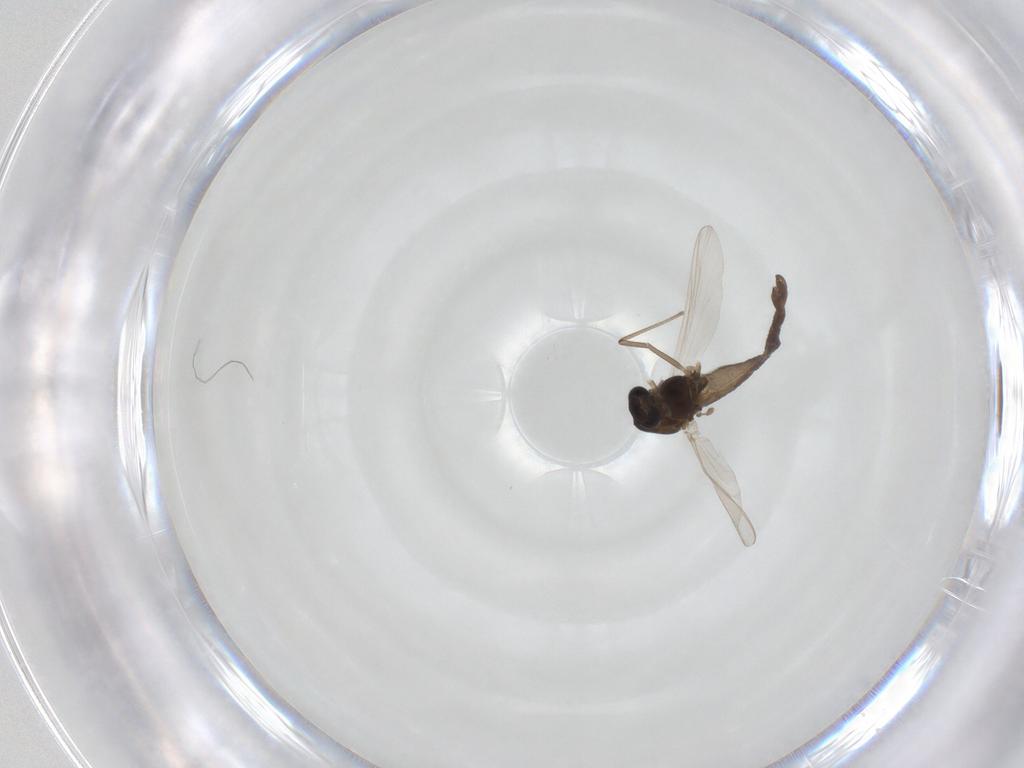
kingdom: Animalia
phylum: Arthropoda
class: Insecta
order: Diptera
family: Chironomidae
